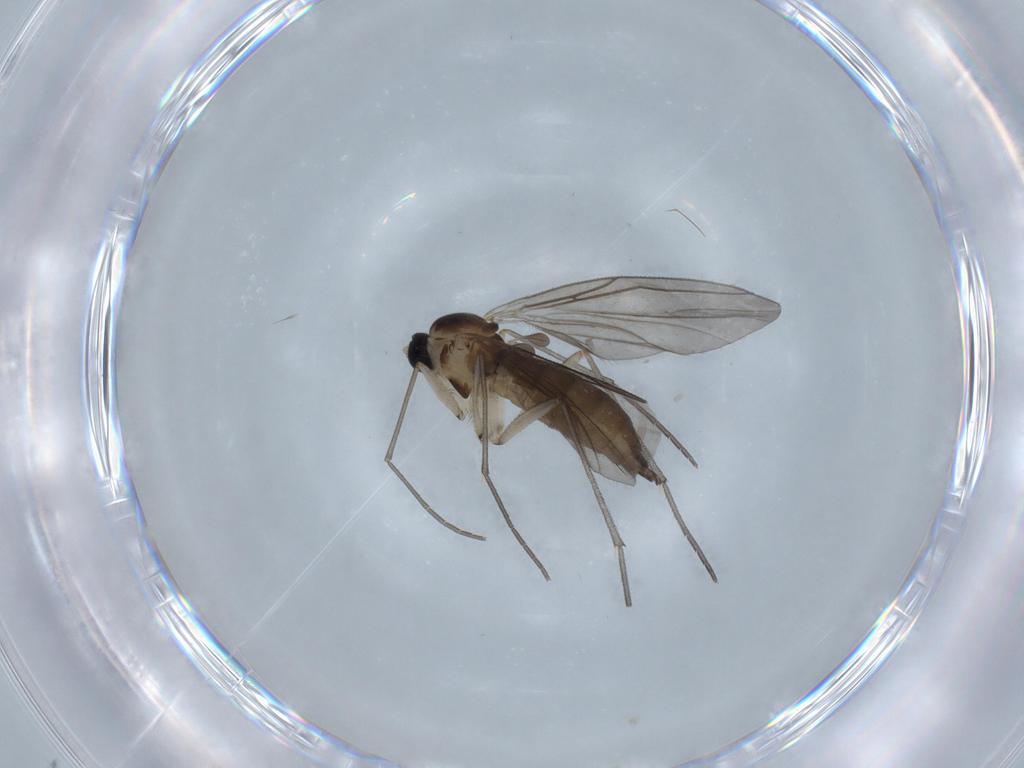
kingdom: Animalia
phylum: Arthropoda
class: Insecta
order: Diptera
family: Sciaridae
